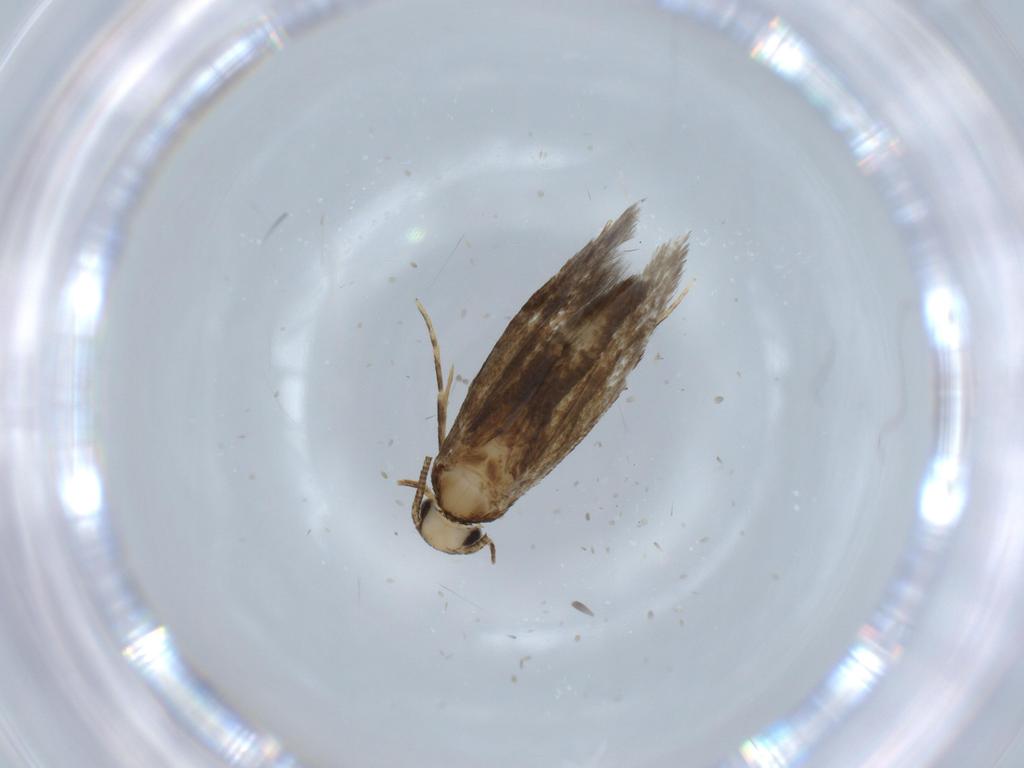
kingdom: Animalia
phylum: Arthropoda
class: Insecta
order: Lepidoptera
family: Tineidae
